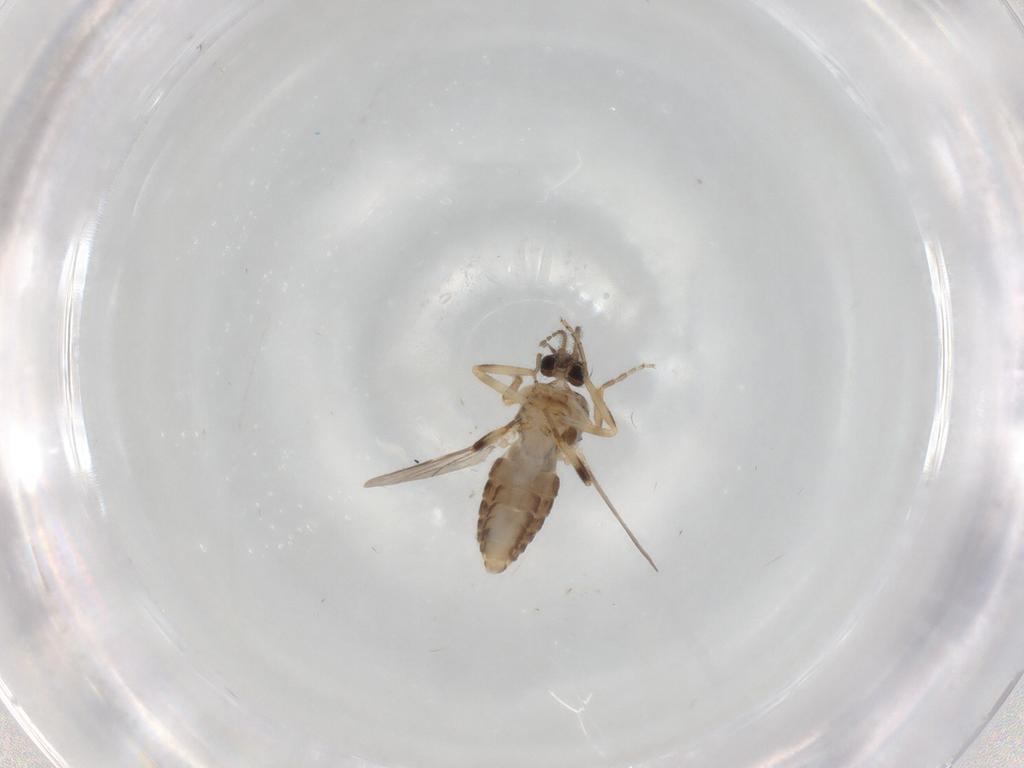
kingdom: Animalia
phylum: Arthropoda
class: Insecta
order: Diptera
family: Ceratopogonidae
